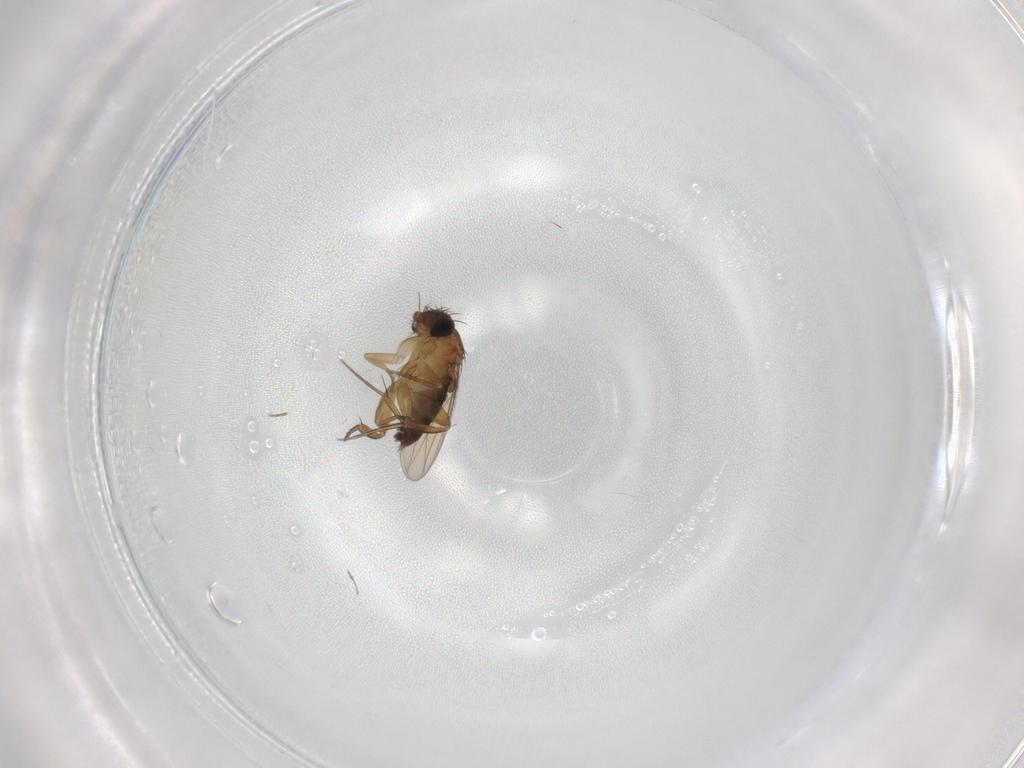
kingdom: Animalia
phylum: Arthropoda
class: Insecta
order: Diptera
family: Phoridae
